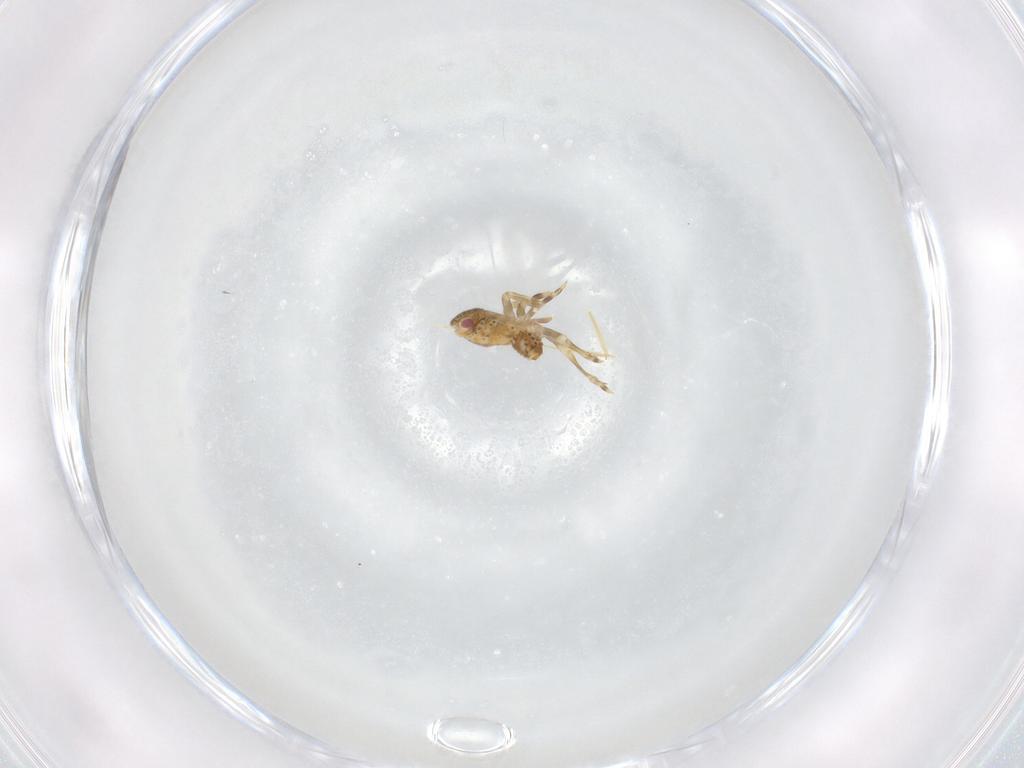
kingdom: Animalia
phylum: Arthropoda
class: Insecta
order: Hemiptera
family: Flatidae
